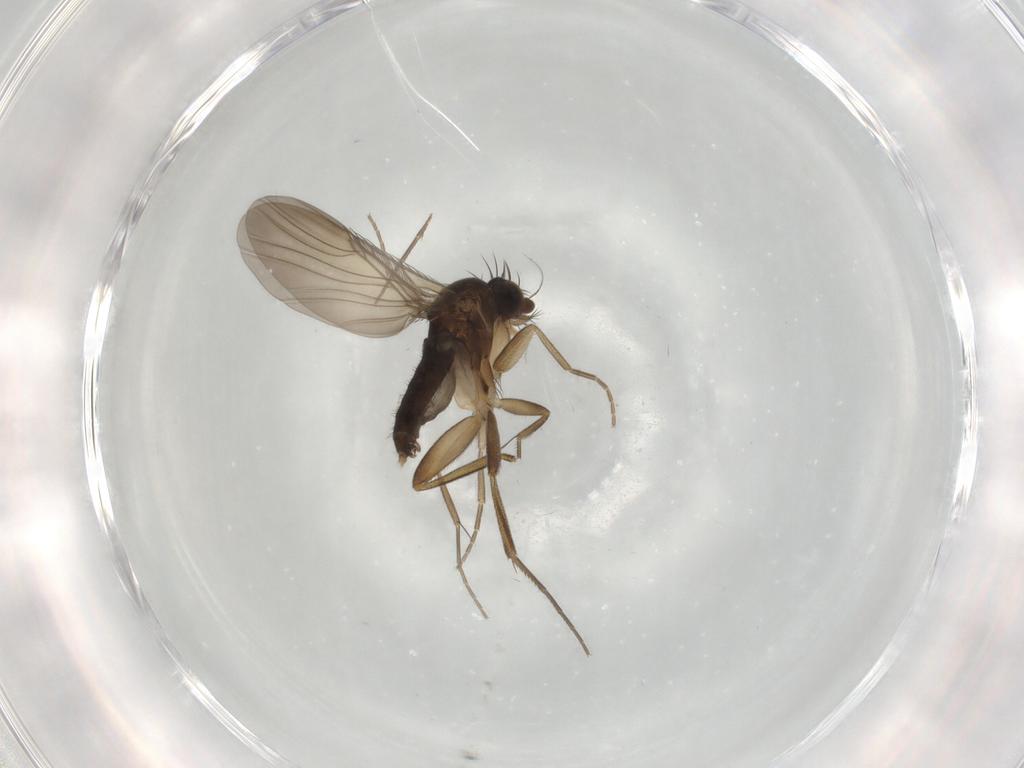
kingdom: Animalia
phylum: Arthropoda
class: Insecta
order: Diptera
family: Phoridae
